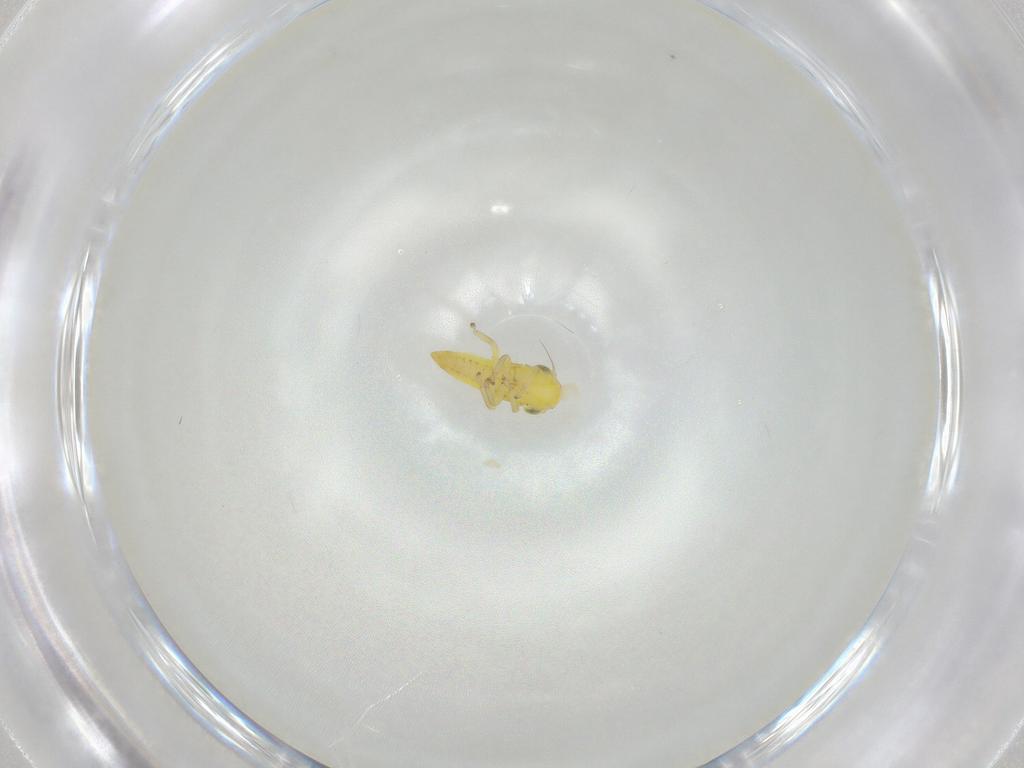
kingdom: Animalia
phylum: Arthropoda
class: Insecta
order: Hemiptera
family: Cicadellidae
